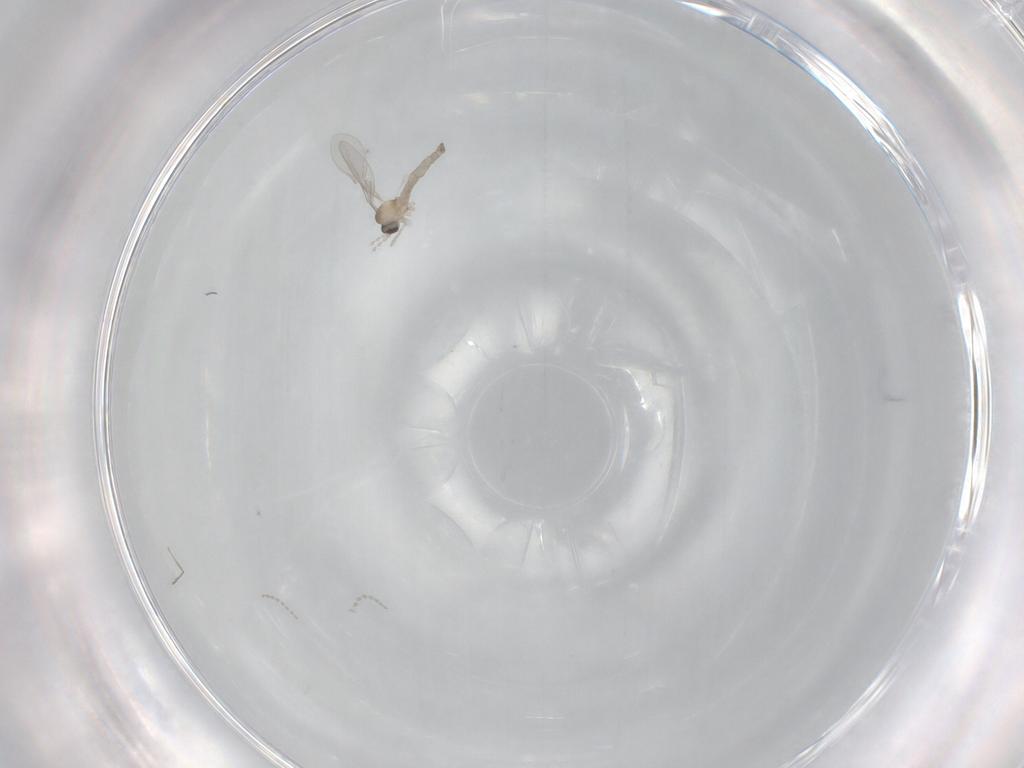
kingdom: Animalia
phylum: Arthropoda
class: Insecta
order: Diptera
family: Cecidomyiidae
